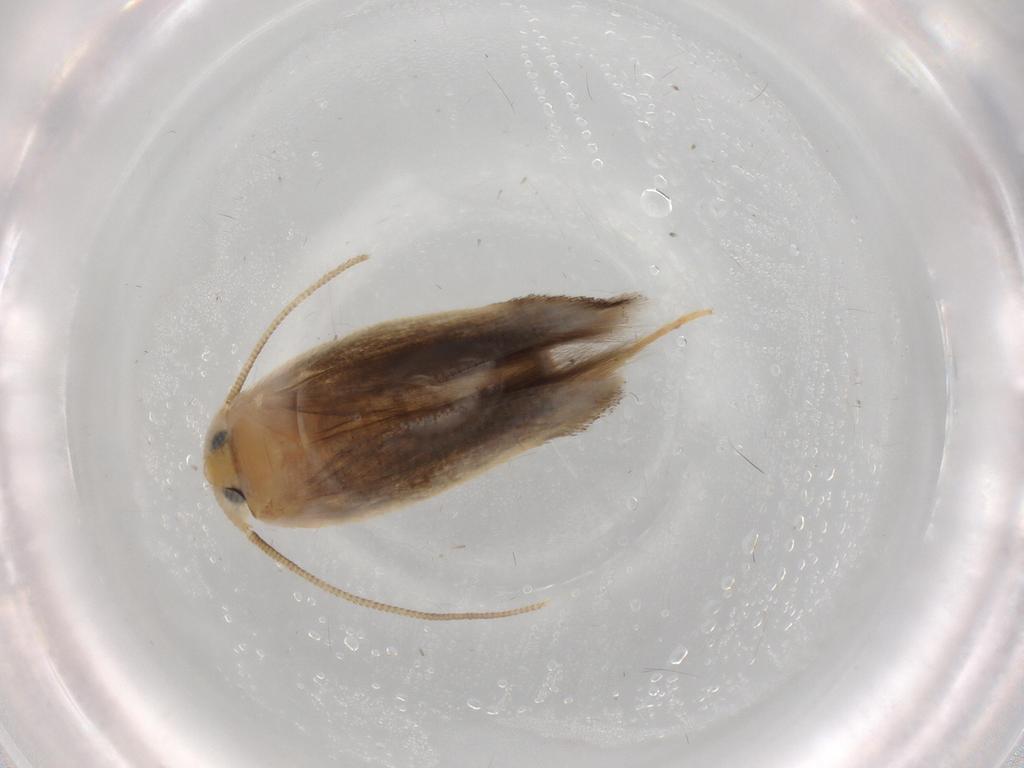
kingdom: Animalia
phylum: Arthropoda
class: Insecta
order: Lepidoptera
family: Opostegidae
